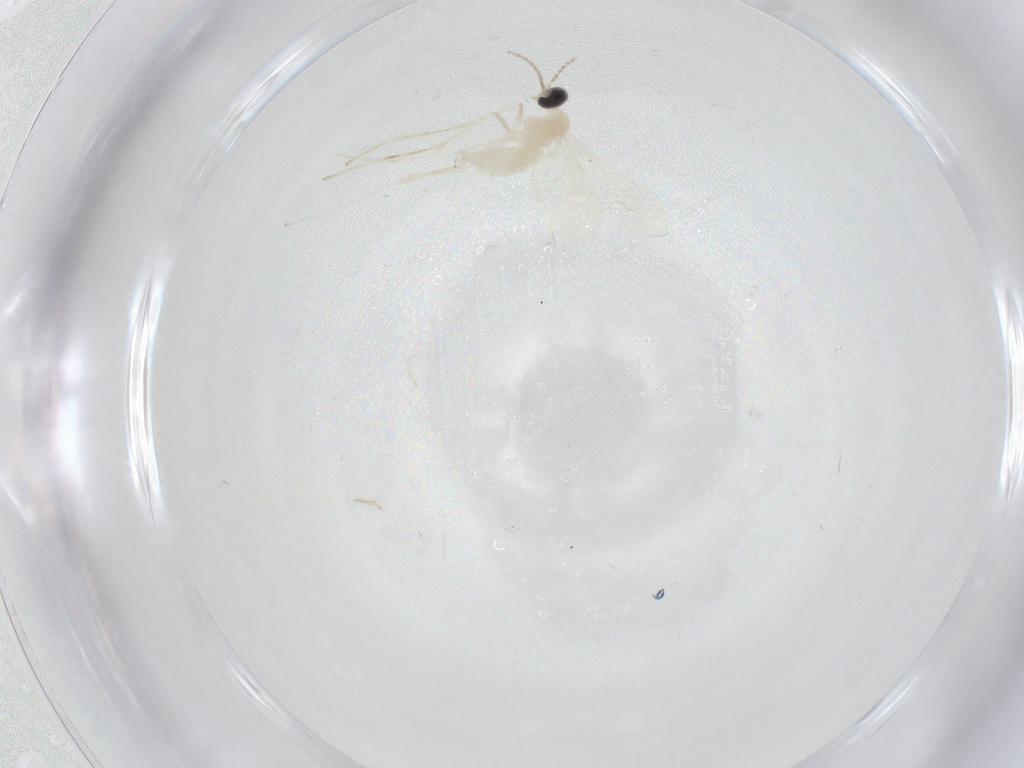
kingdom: Animalia
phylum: Arthropoda
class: Insecta
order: Diptera
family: Cecidomyiidae
